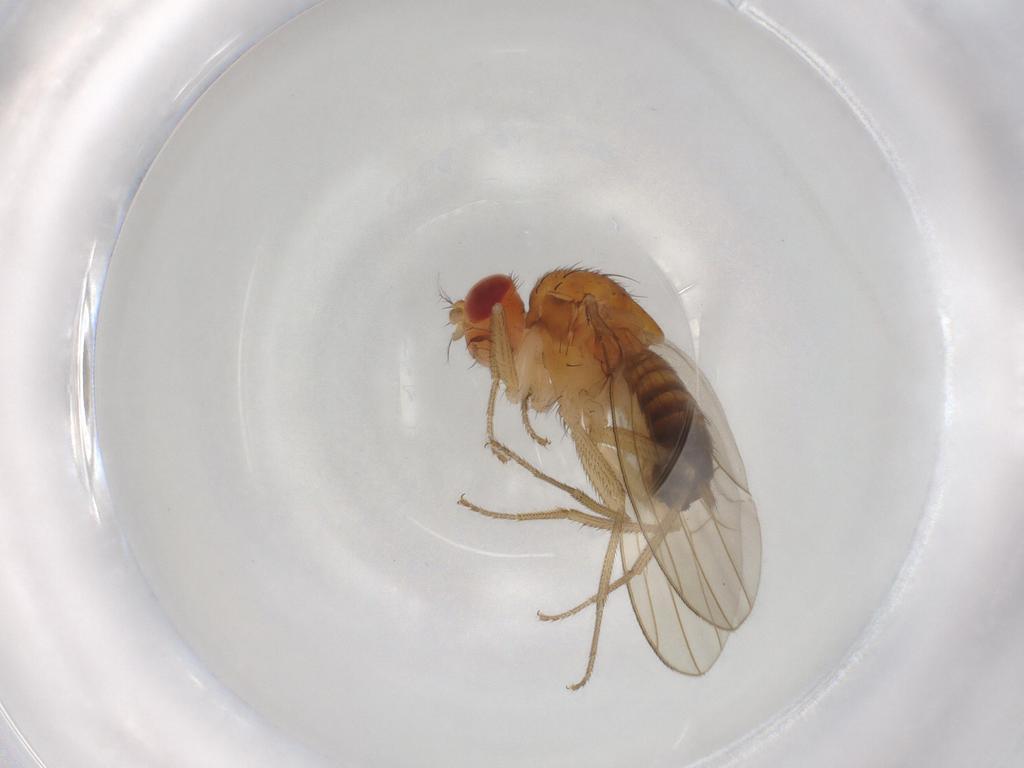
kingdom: Animalia
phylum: Arthropoda
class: Insecta
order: Diptera
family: Drosophilidae
